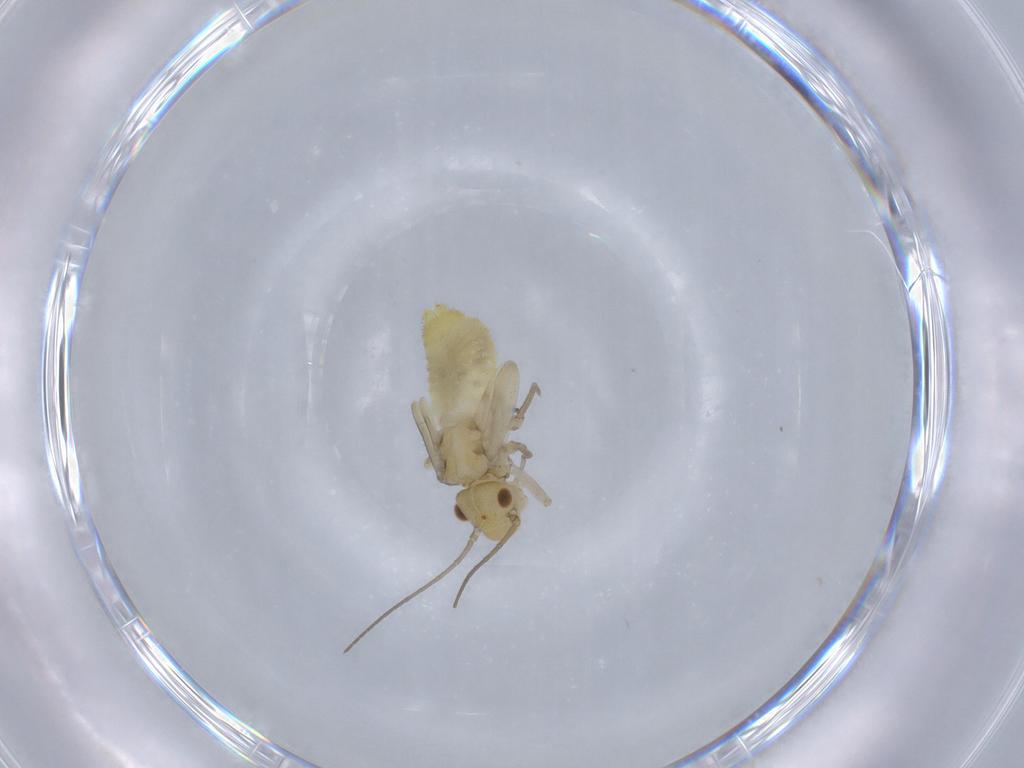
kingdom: Animalia
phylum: Arthropoda
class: Insecta
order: Psocodea
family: Caeciliusidae
